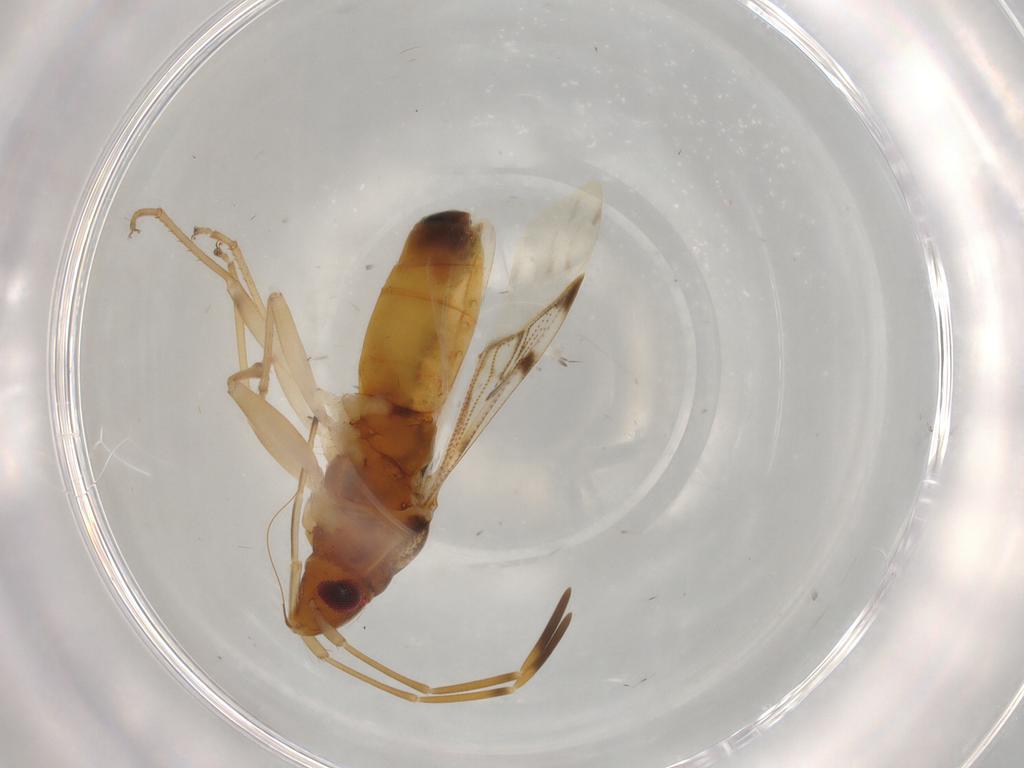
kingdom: Animalia
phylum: Arthropoda
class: Insecta
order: Hemiptera
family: Rhyparochromidae
